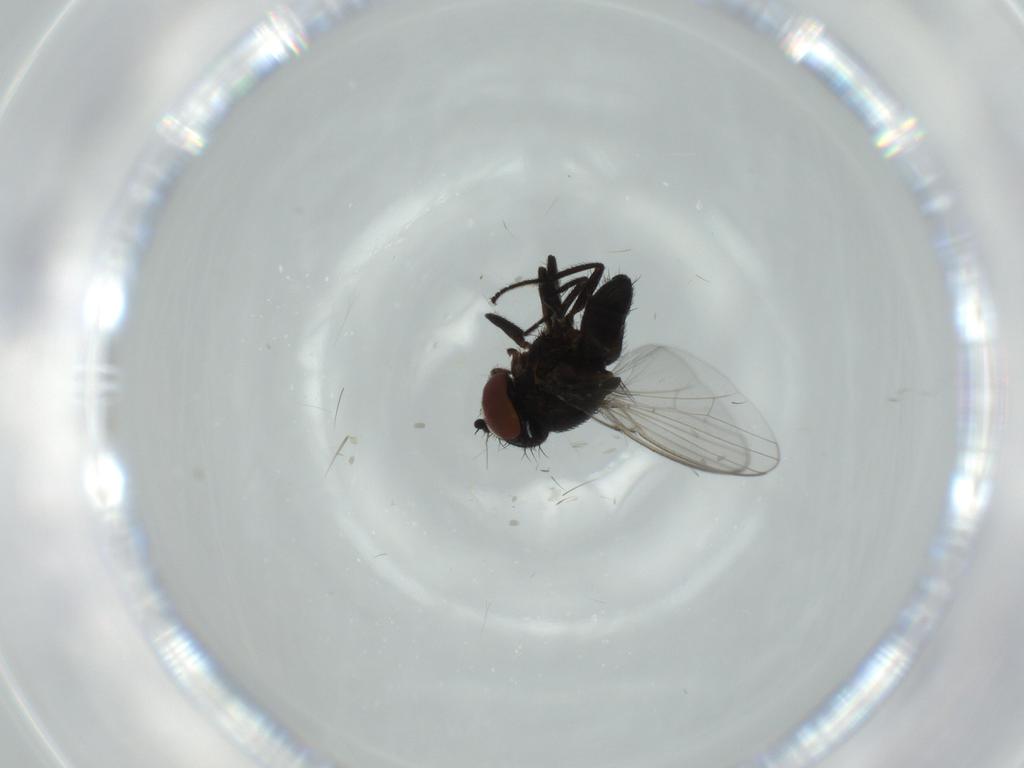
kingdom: Animalia
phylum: Arthropoda
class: Insecta
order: Diptera
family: Milichiidae
